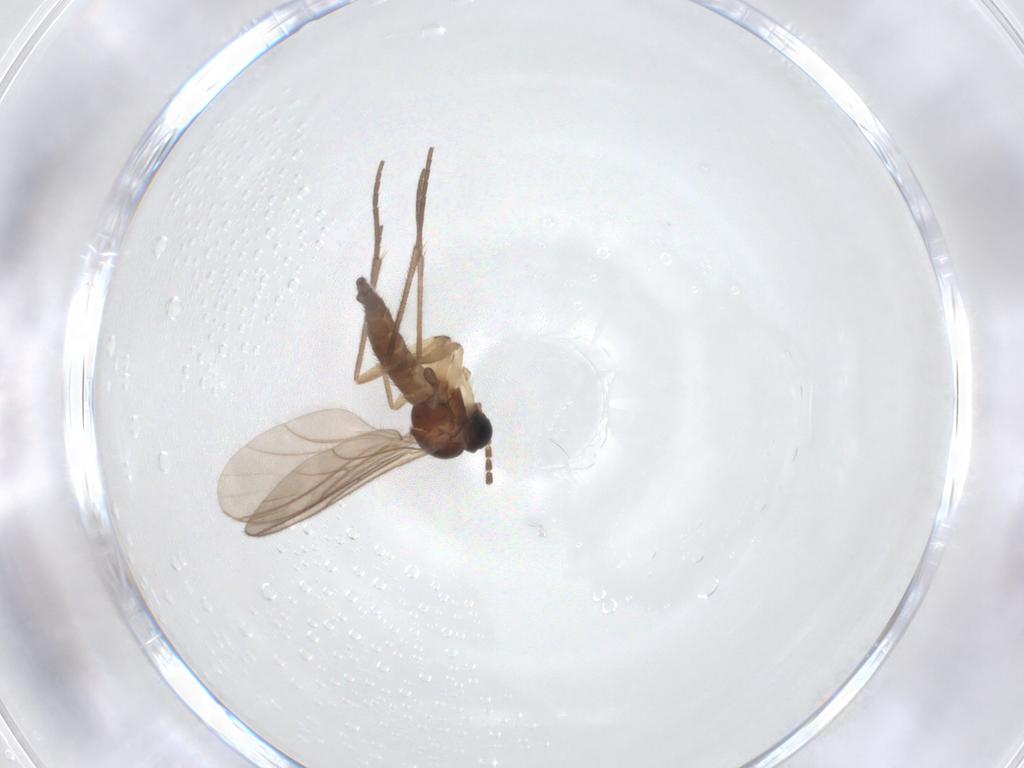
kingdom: Animalia
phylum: Arthropoda
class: Insecta
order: Diptera
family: Sciaridae
